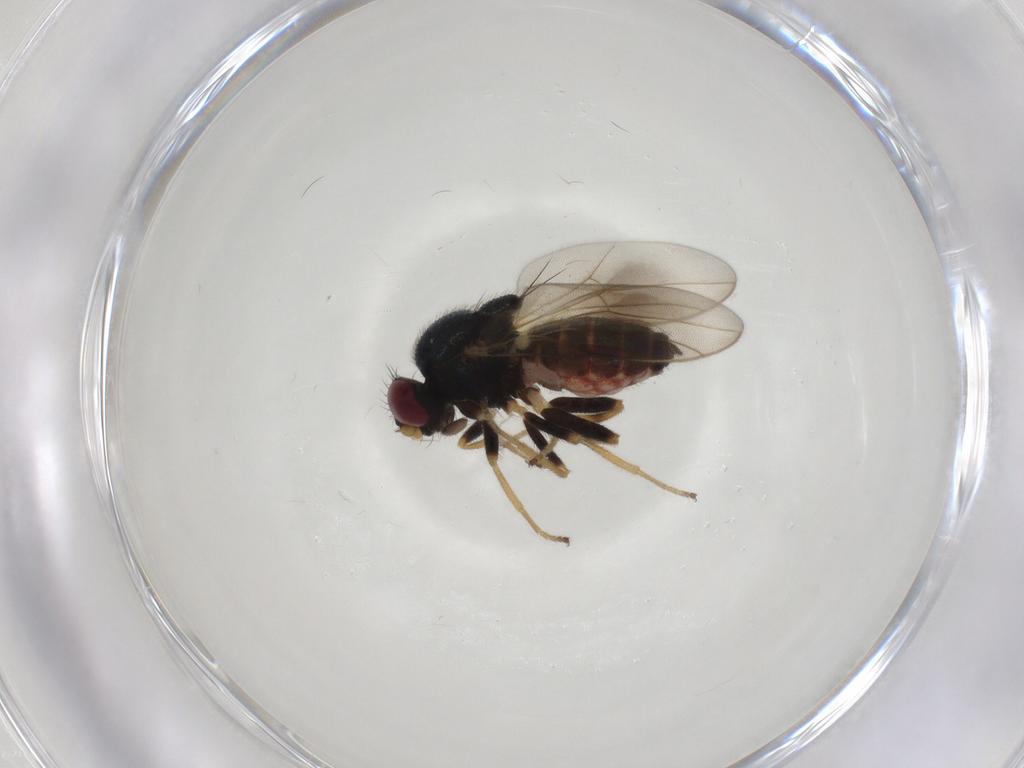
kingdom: Animalia
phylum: Arthropoda
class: Insecta
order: Diptera
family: Chloropidae
